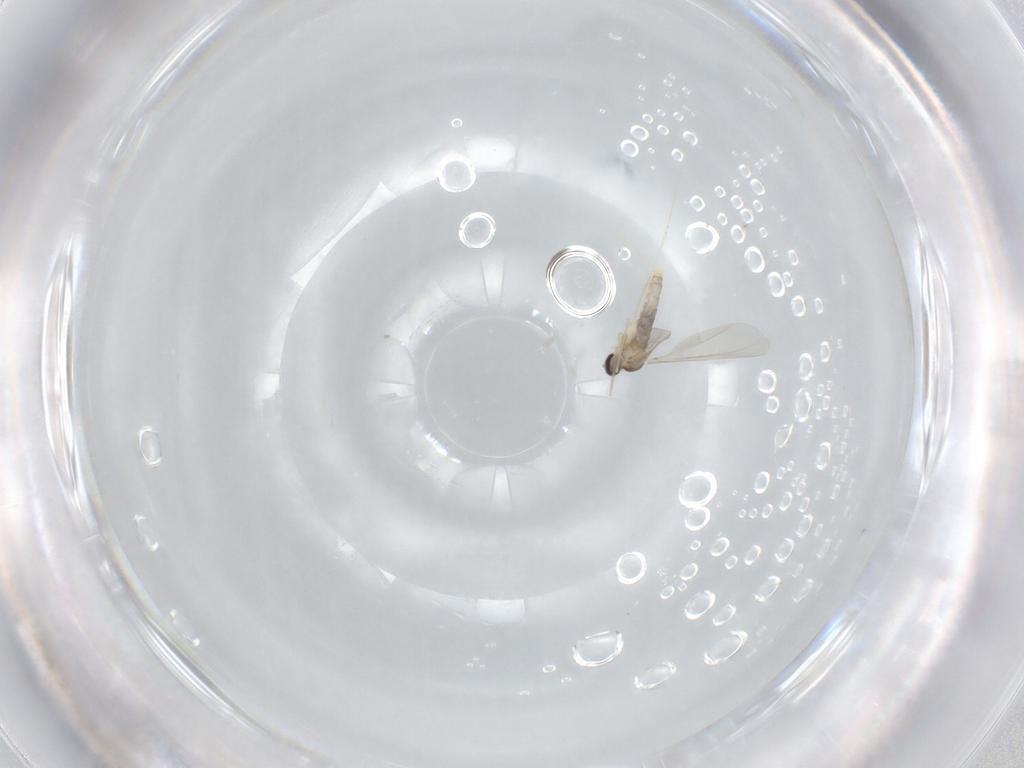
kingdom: Animalia
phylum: Arthropoda
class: Insecta
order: Diptera
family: Cecidomyiidae
